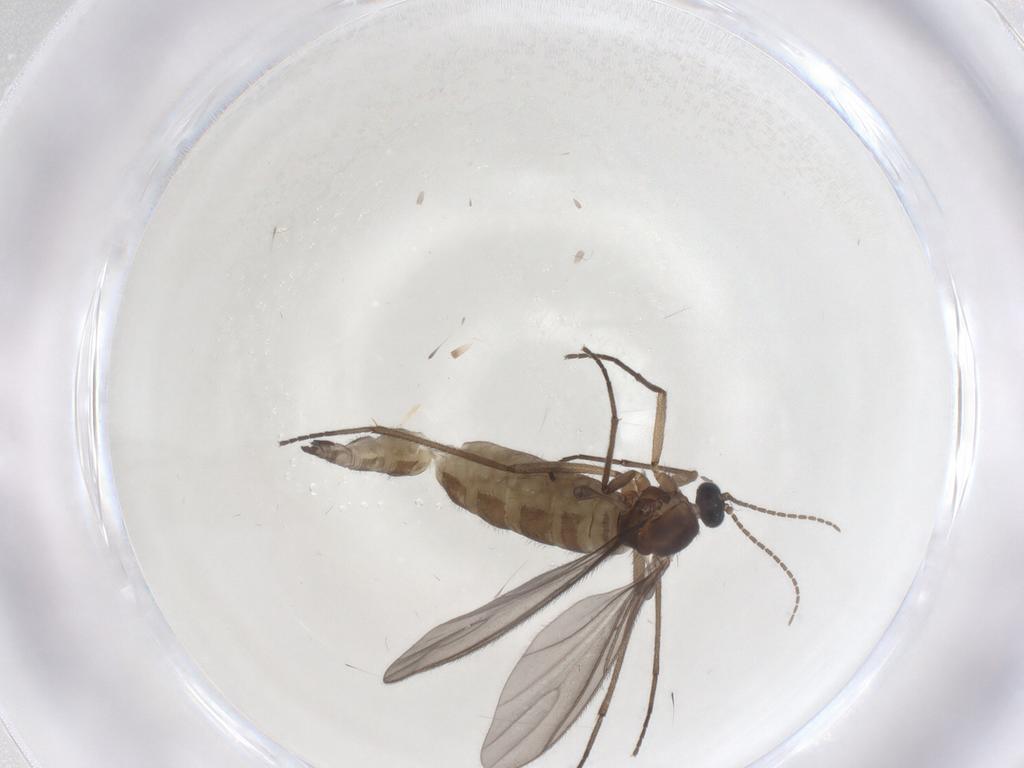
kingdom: Animalia
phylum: Arthropoda
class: Insecta
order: Diptera
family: Sciaridae
